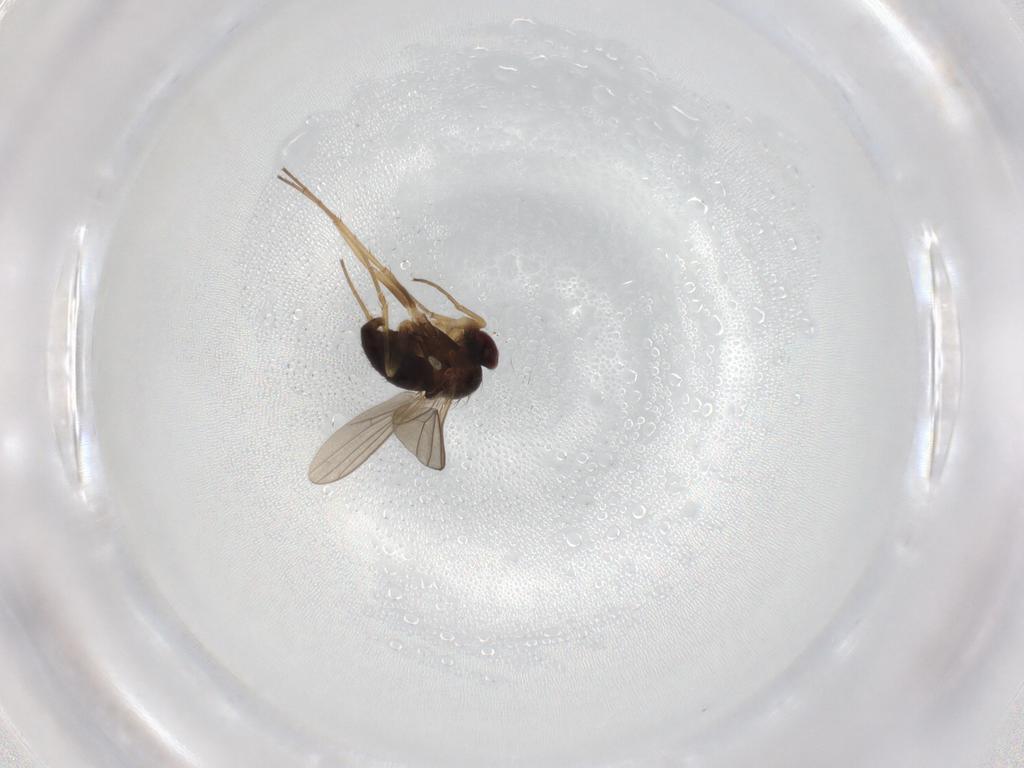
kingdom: Animalia
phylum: Arthropoda
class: Insecta
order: Diptera
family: Dolichopodidae
